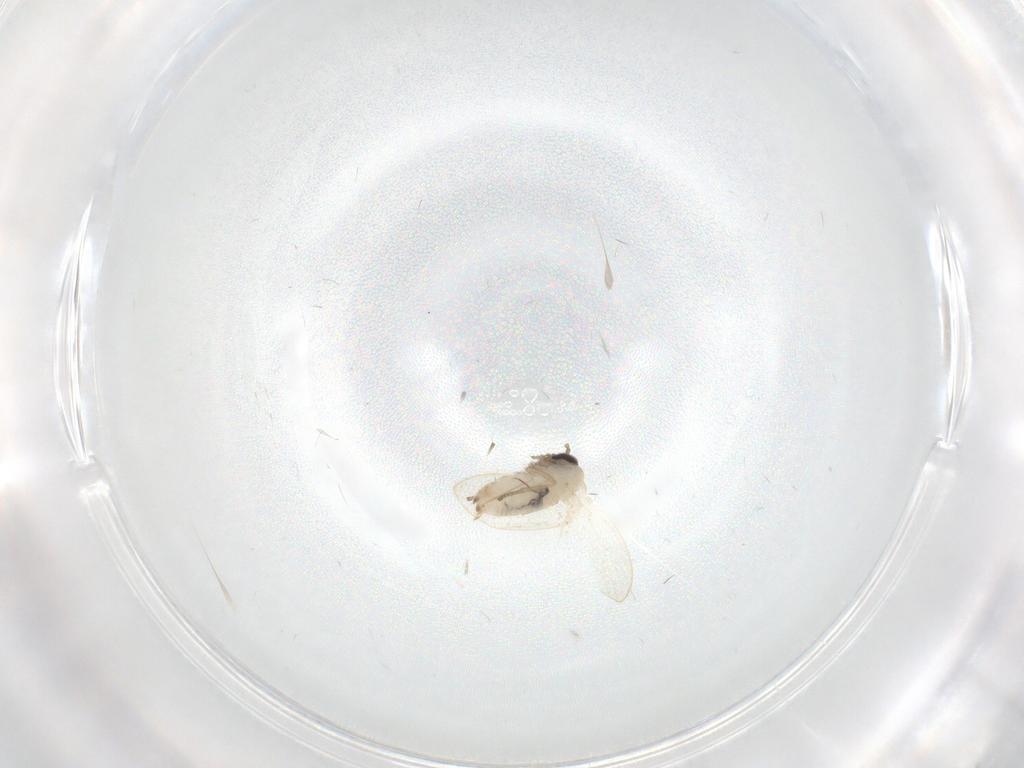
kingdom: Animalia
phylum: Arthropoda
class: Insecta
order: Diptera
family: Psychodidae
